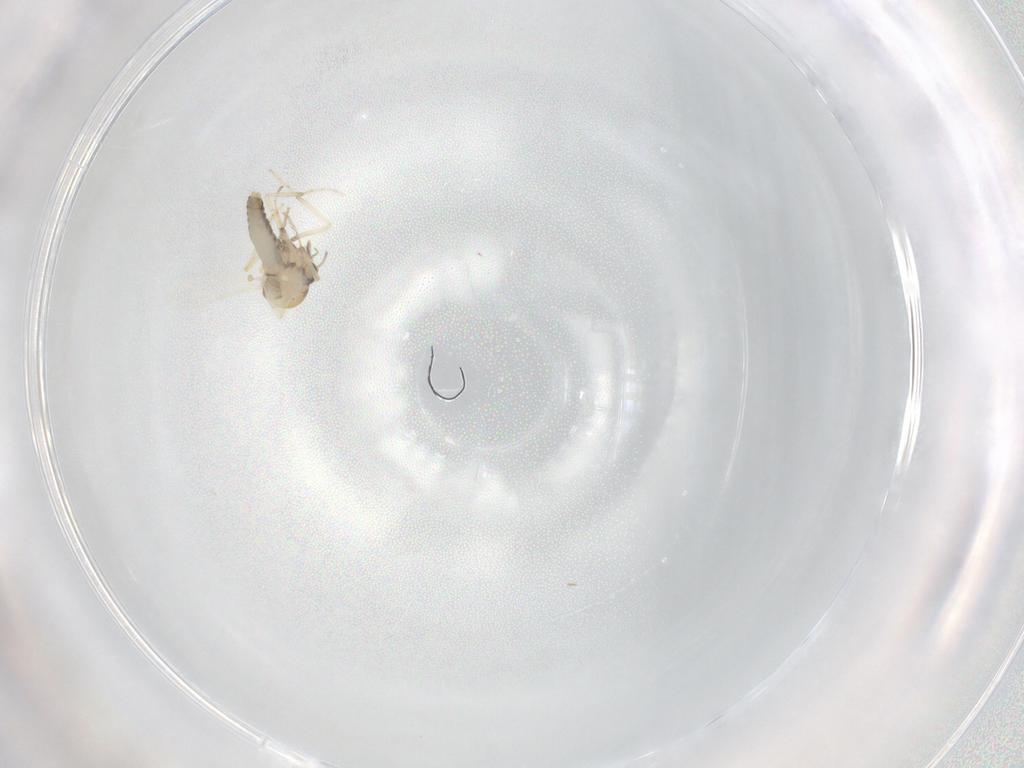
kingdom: Animalia
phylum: Arthropoda
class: Insecta
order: Diptera
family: Ceratopogonidae
